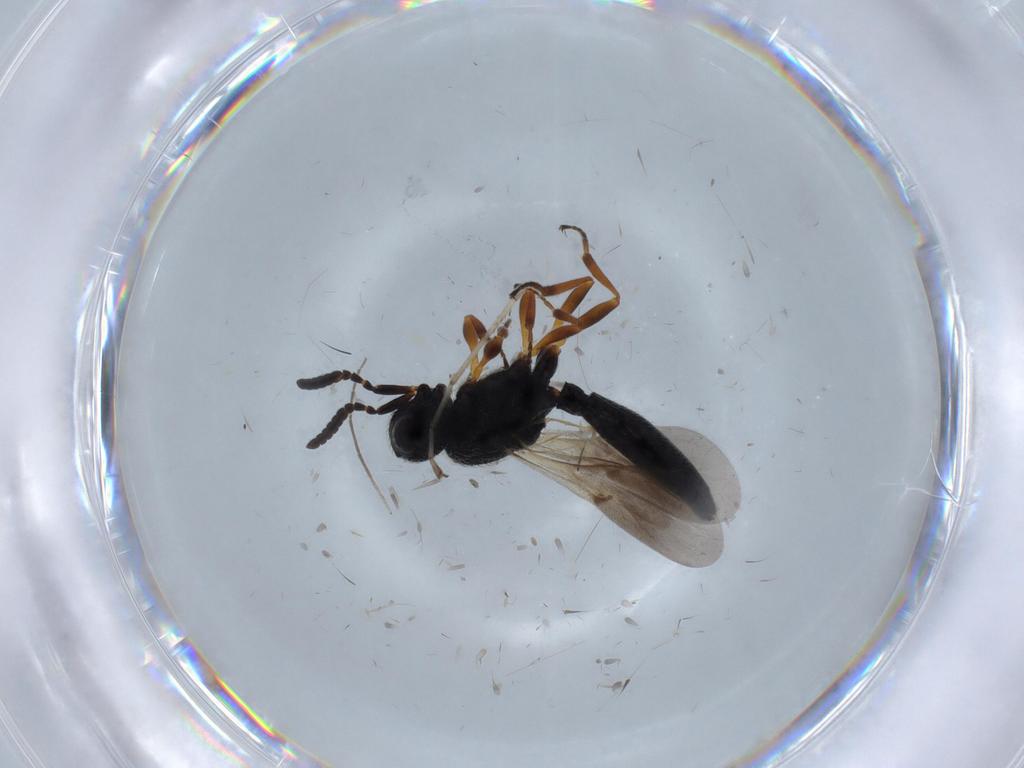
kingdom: Animalia
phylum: Arthropoda
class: Insecta
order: Hymenoptera
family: Scelionidae
